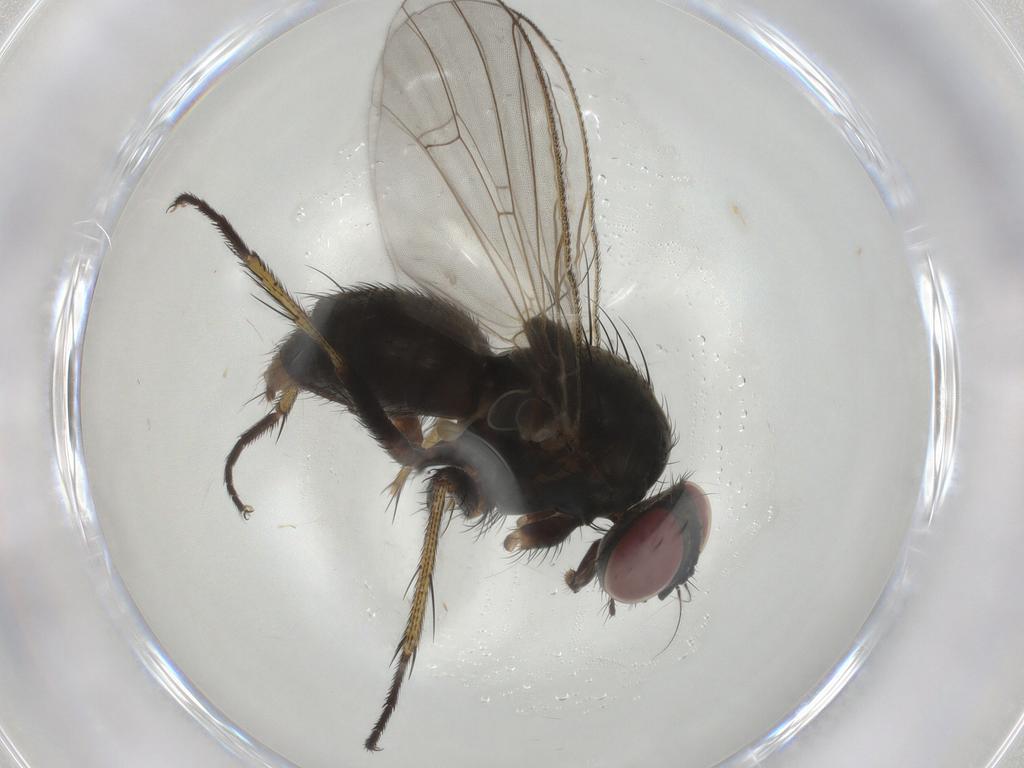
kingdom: Animalia
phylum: Arthropoda
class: Insecta
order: Diptera
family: Muscidae
